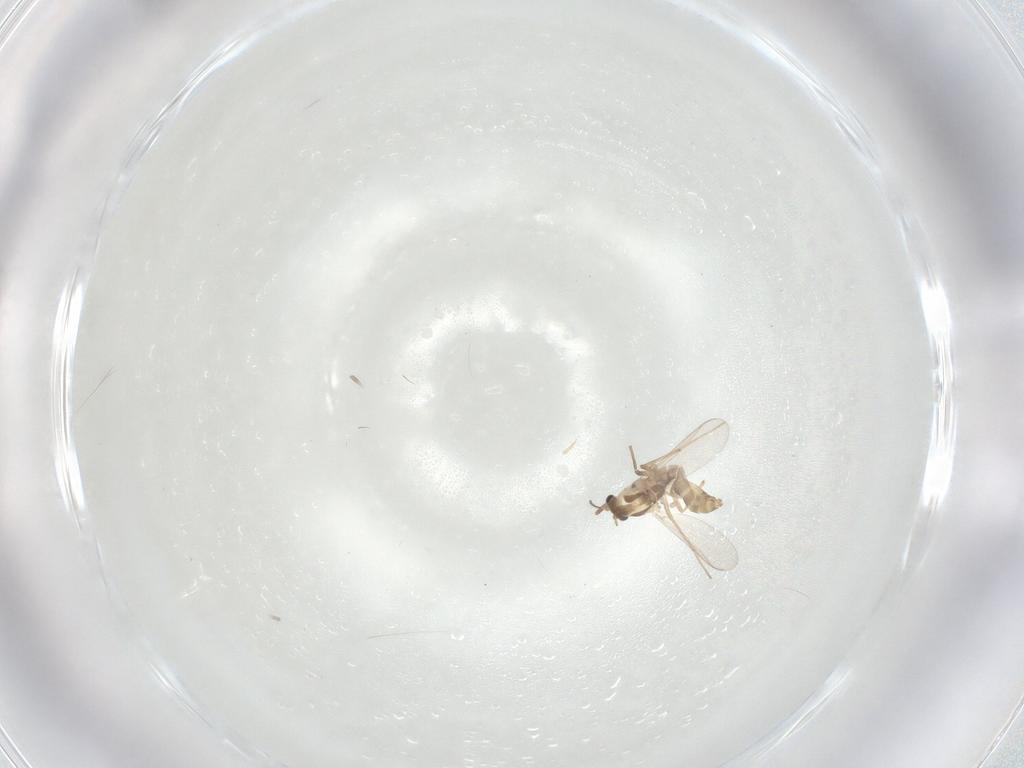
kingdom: Animalia
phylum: Arthropoda
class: Insecta
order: Diptera
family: Chironomidae
